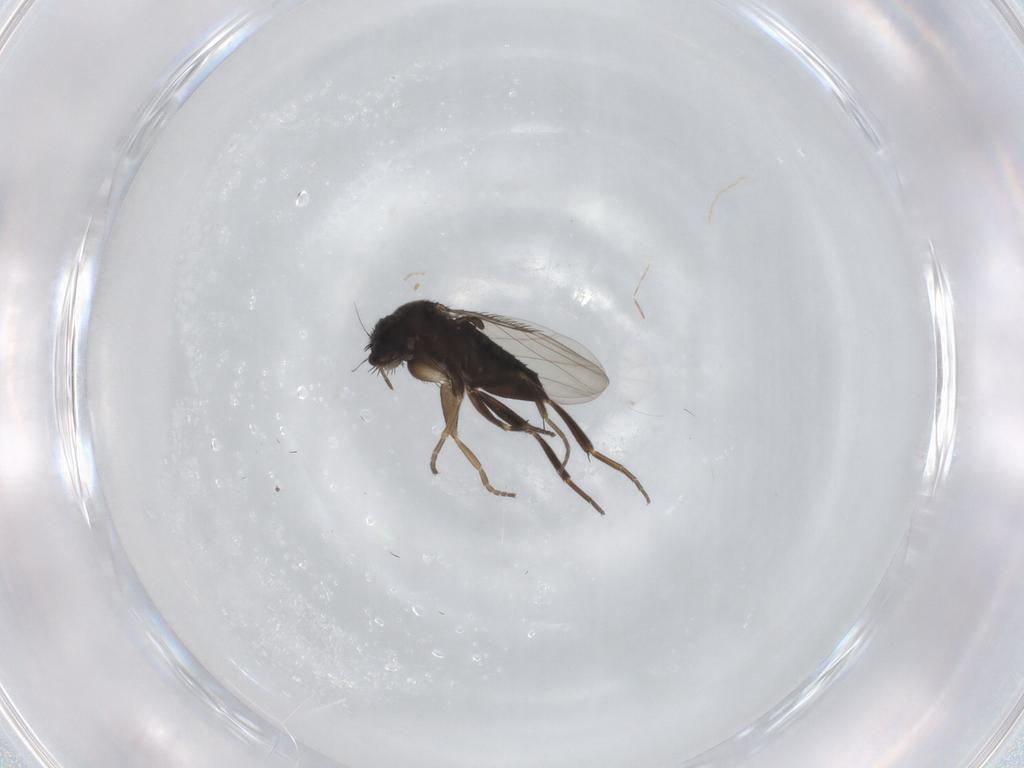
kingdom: Animalia
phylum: Arthropoda
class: Insecta
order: Diptera
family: Phoridae
